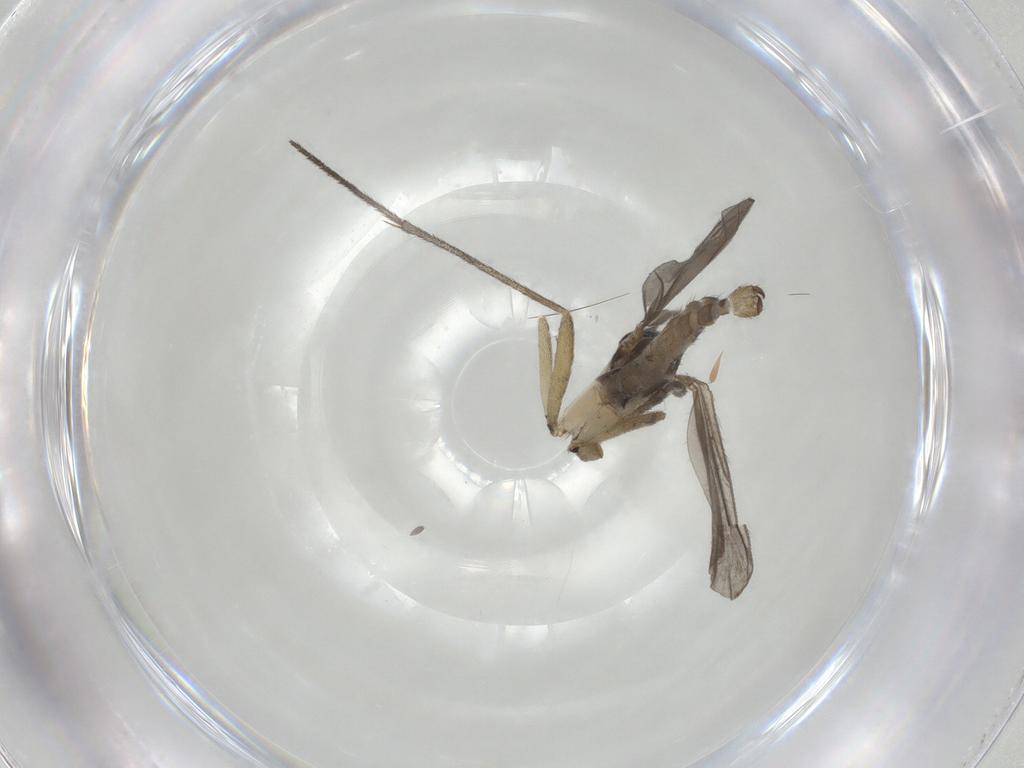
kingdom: Animalia
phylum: Arthropoda
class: Insecta
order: Diptera
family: Sciaridae
